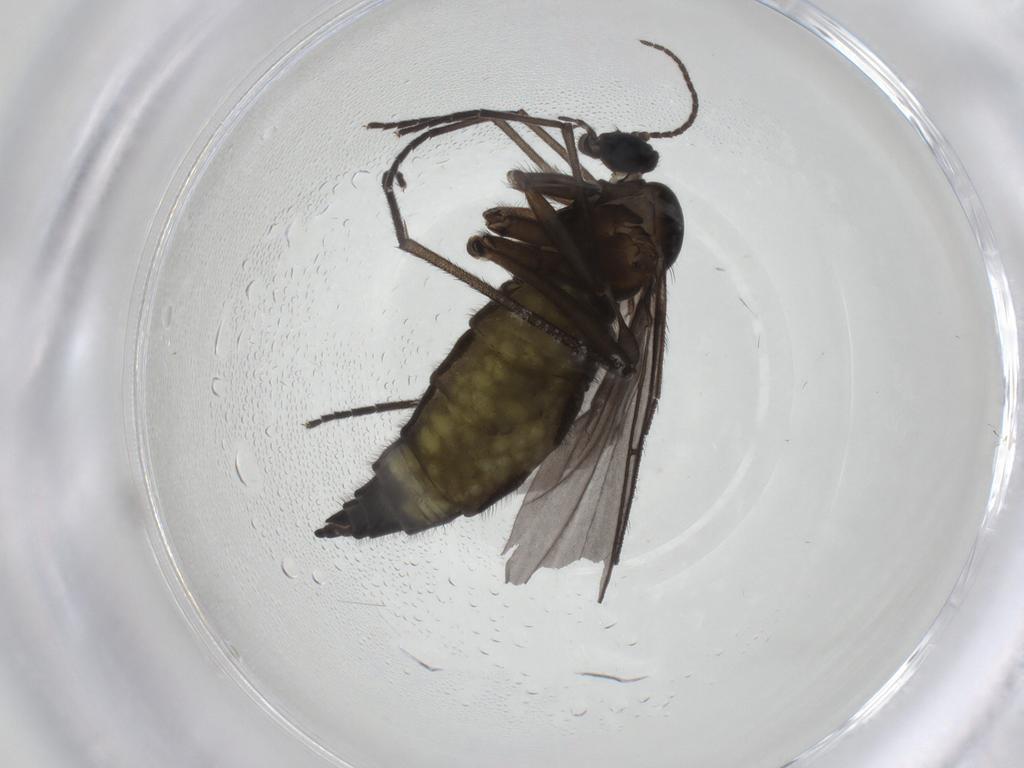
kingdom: Animalia
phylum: Arthropoda
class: Insecta
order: Diptera
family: Sciaridae
